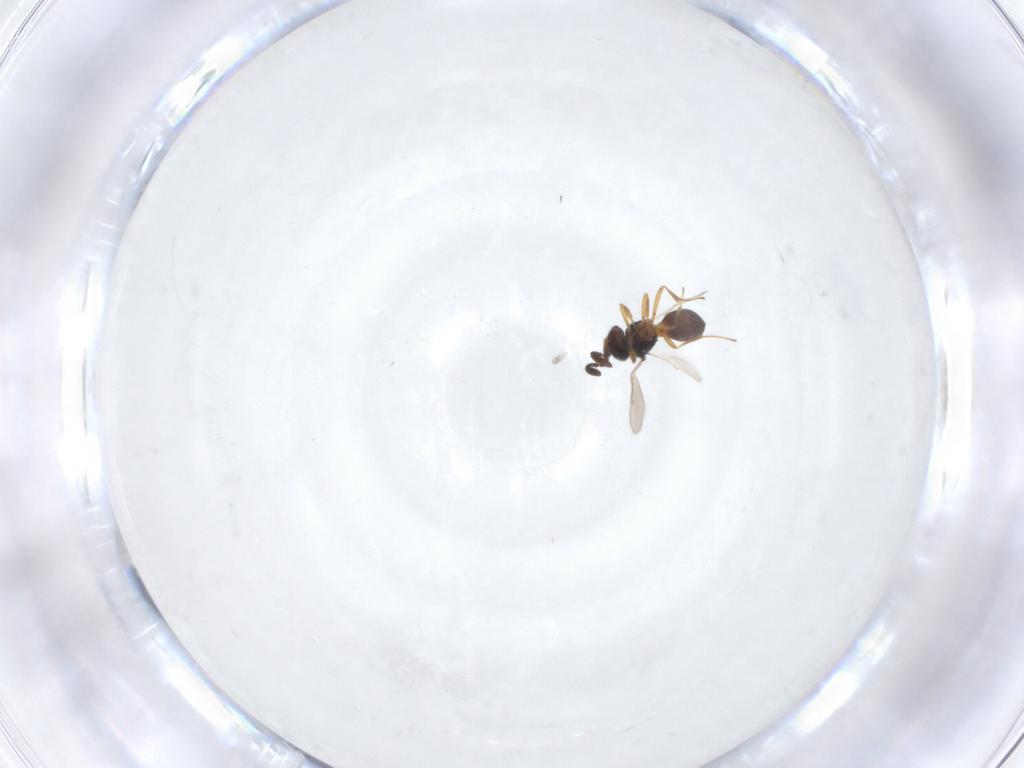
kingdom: Animalia
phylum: Arthropoda
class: Insecta
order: Hymenoptera
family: Scelionidae
